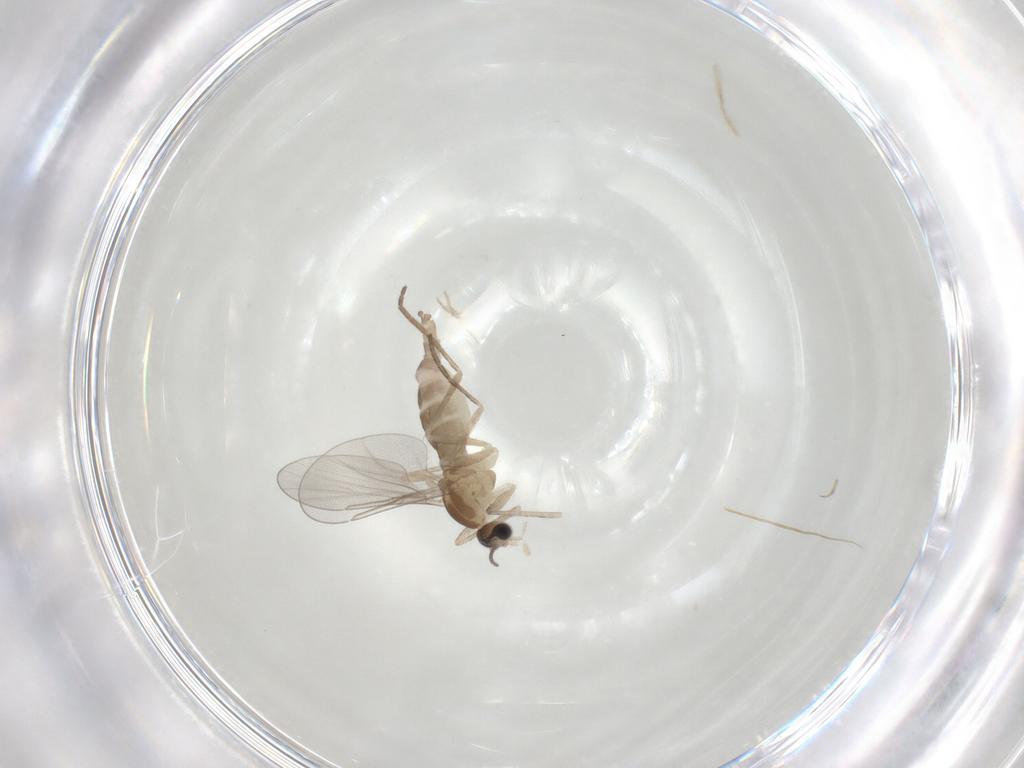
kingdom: Animalia
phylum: Arthropoda
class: Insecta
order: Diptera
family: Cecidomyiidae
